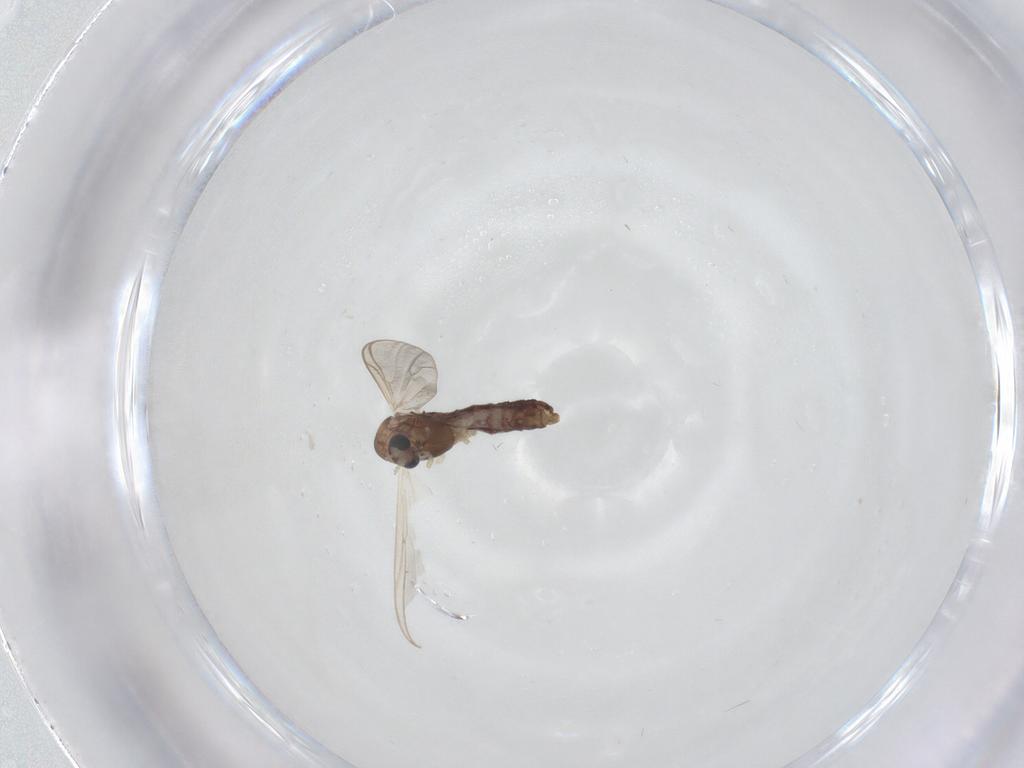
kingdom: Animalia
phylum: Arthropoda
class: Insecta
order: Diptera
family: Chironomidae
